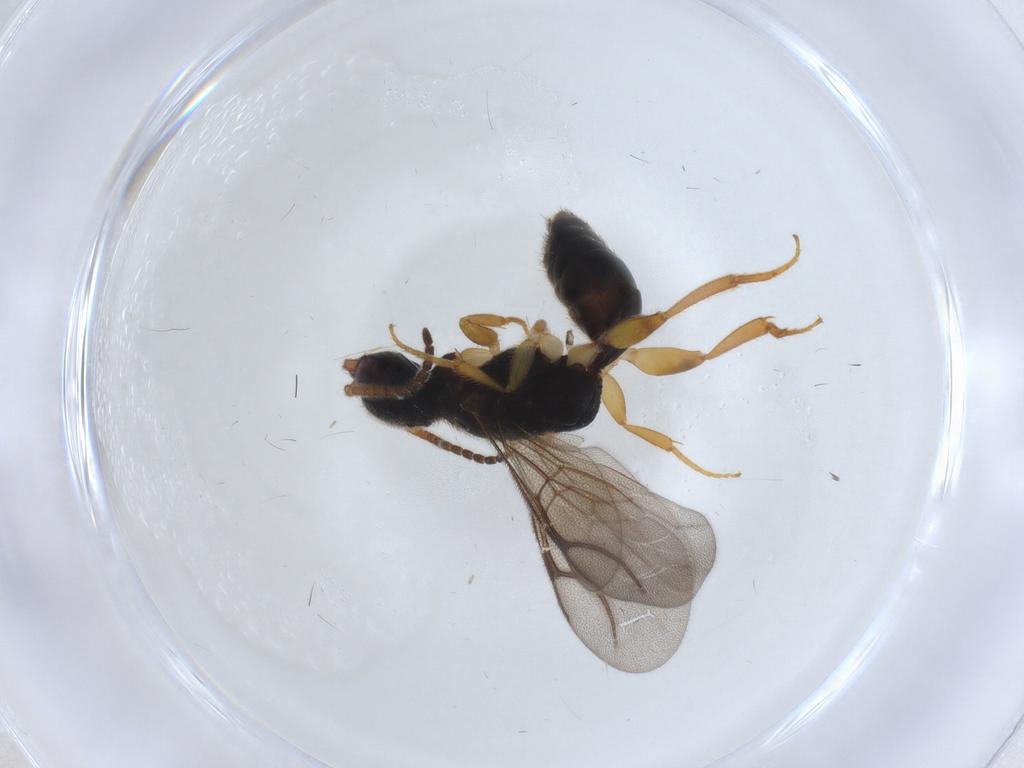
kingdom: Animalia
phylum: Arthropoda
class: Insecta
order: Hymenoptera
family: Bethylidae
